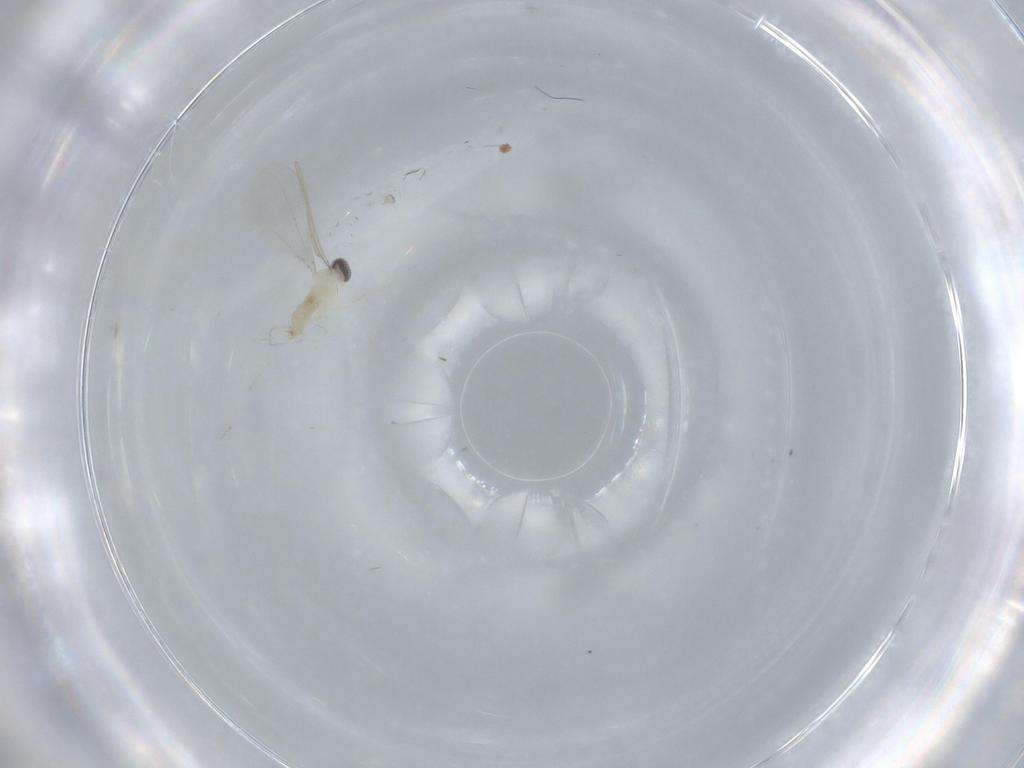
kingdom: Animalia
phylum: Arthropoda
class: Insecta
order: Diptera
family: Cecidomyiidae
